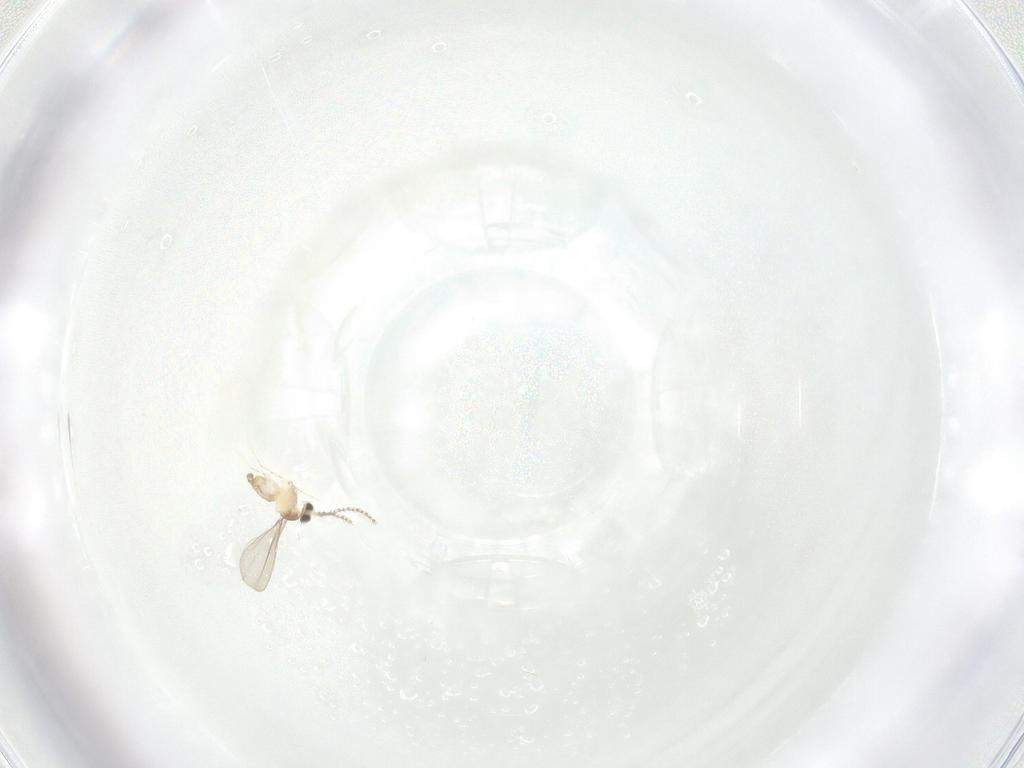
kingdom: Animalia
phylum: Arthropoda
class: Insecta
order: Diptera
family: Cecidomyiidae
